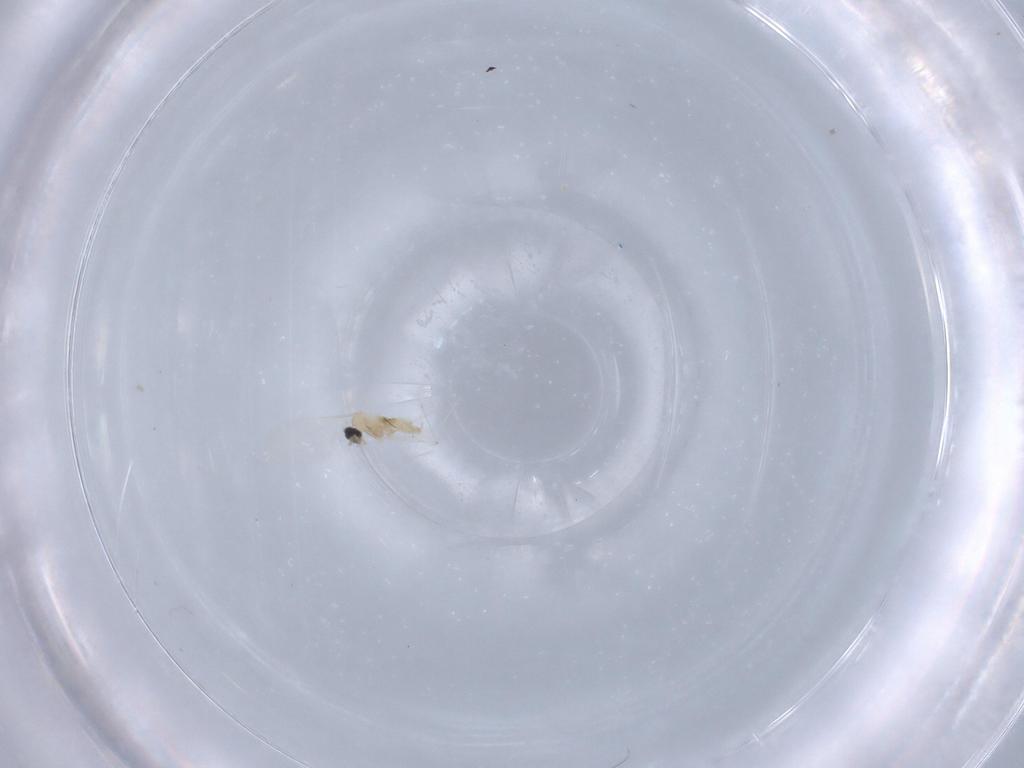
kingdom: Animalia
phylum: Arthropoda
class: Insecta
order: Diptera
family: Cecidomyiidae
